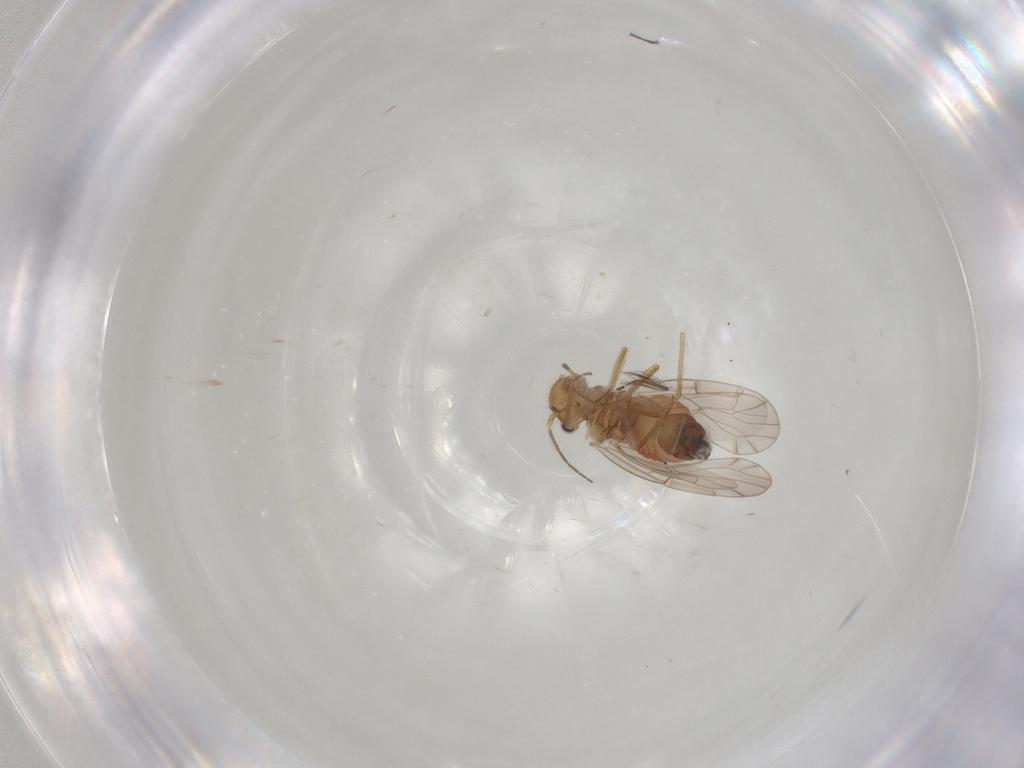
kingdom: Animalia
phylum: Arthropoda
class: Insecta
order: Psocodea
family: Ectopsocidae
